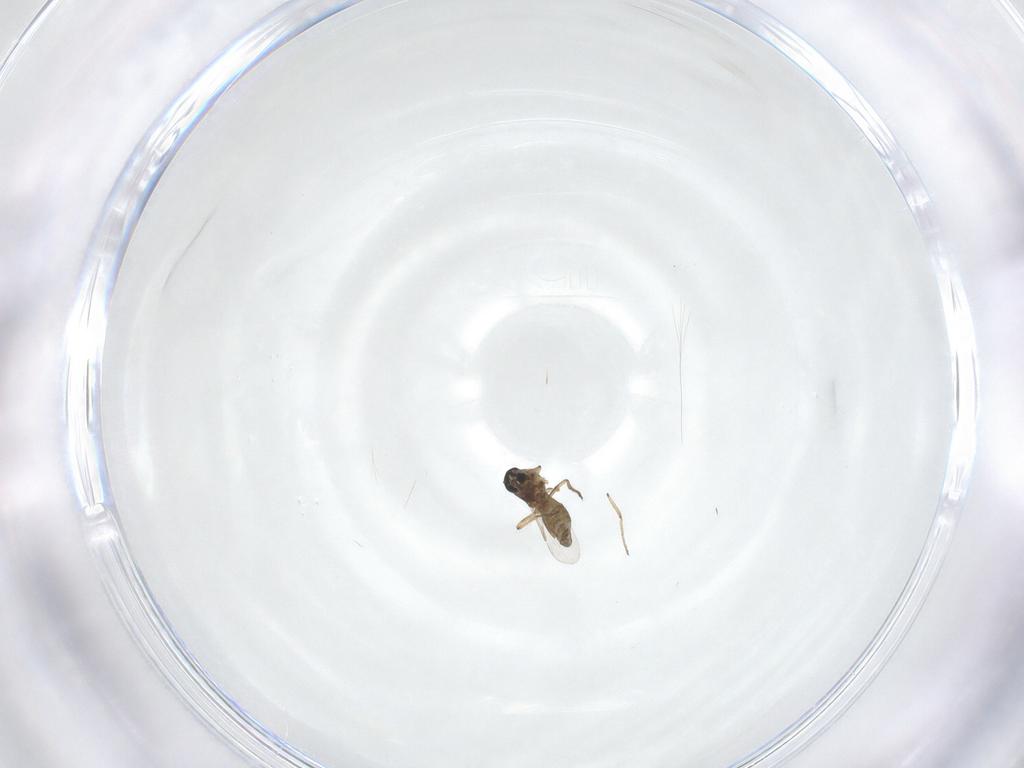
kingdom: Animalia
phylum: Arthropoda
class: Insecta
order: Diptera
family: Ceratopogonidae
